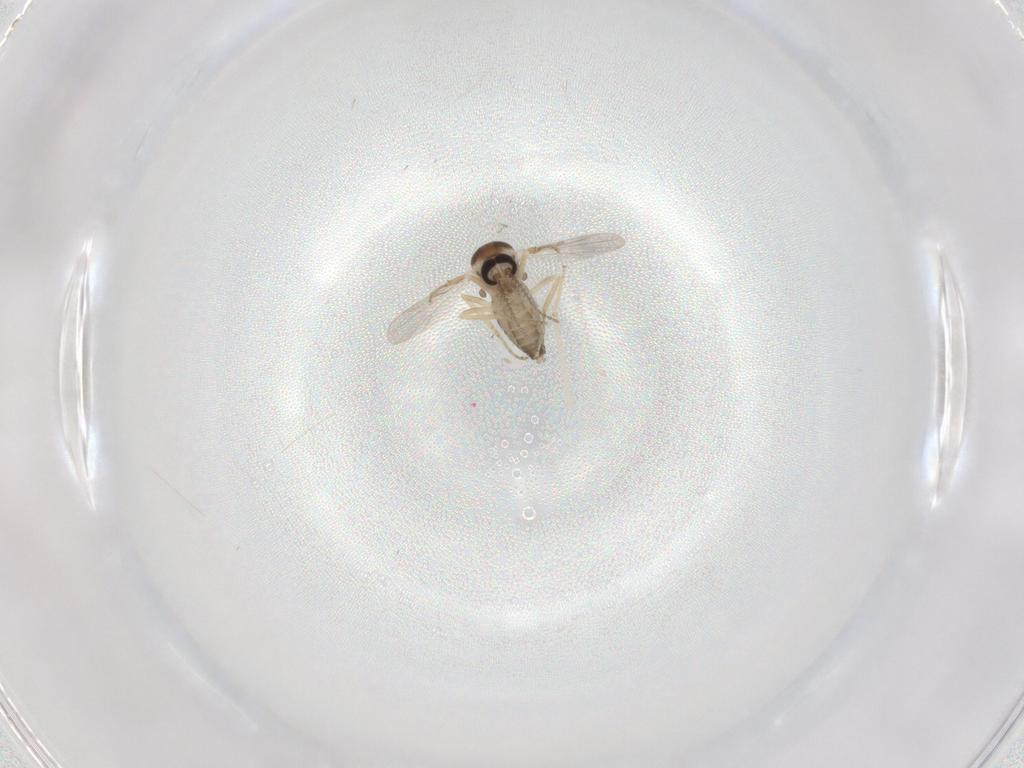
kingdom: Animalia
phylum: Arthropoda
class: Insecta
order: Diptera
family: Ceratopogonidae
